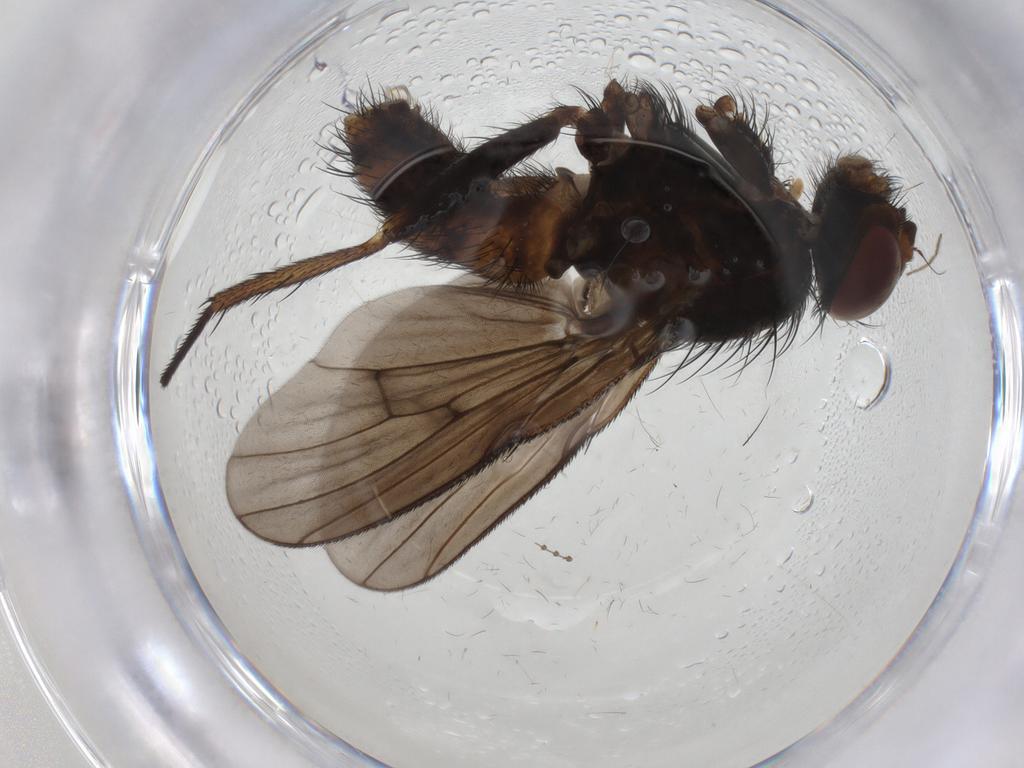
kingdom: Animalia
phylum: Arthropoda
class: Insecta
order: Diptera
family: Muscidae
